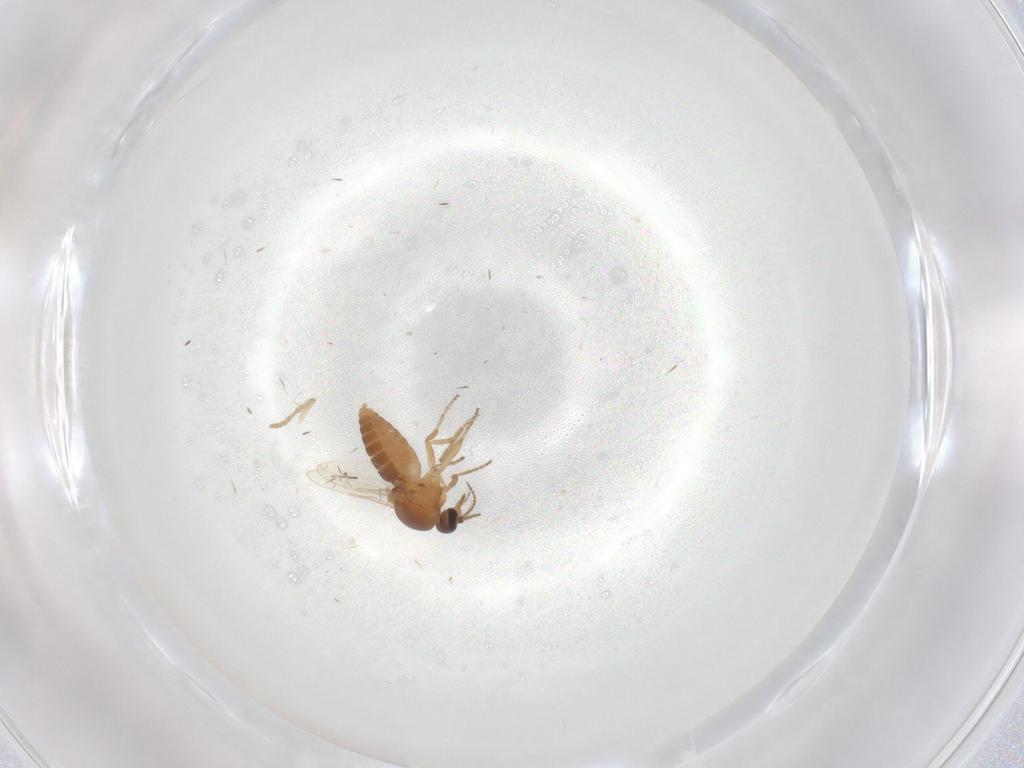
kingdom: Animalia
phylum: Arthropoda
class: Insecta
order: Diptera
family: Ceratopogonidae
